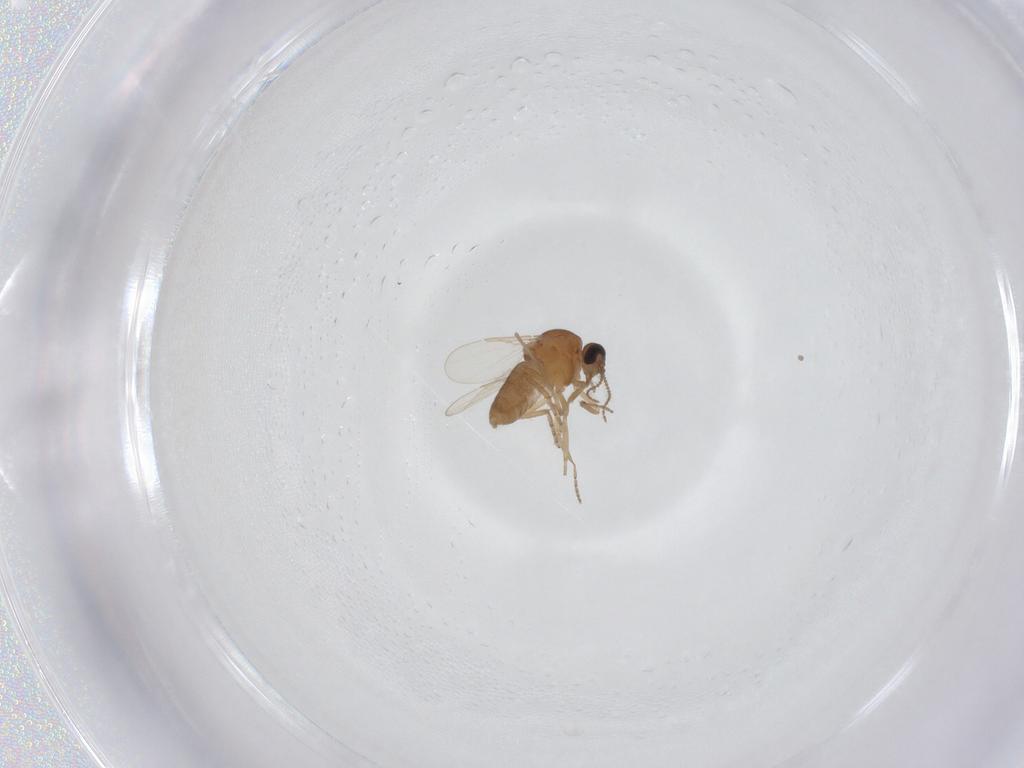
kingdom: Animalia
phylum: Arthropoda
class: Insecta
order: Diptera
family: Ceratopogonidae
